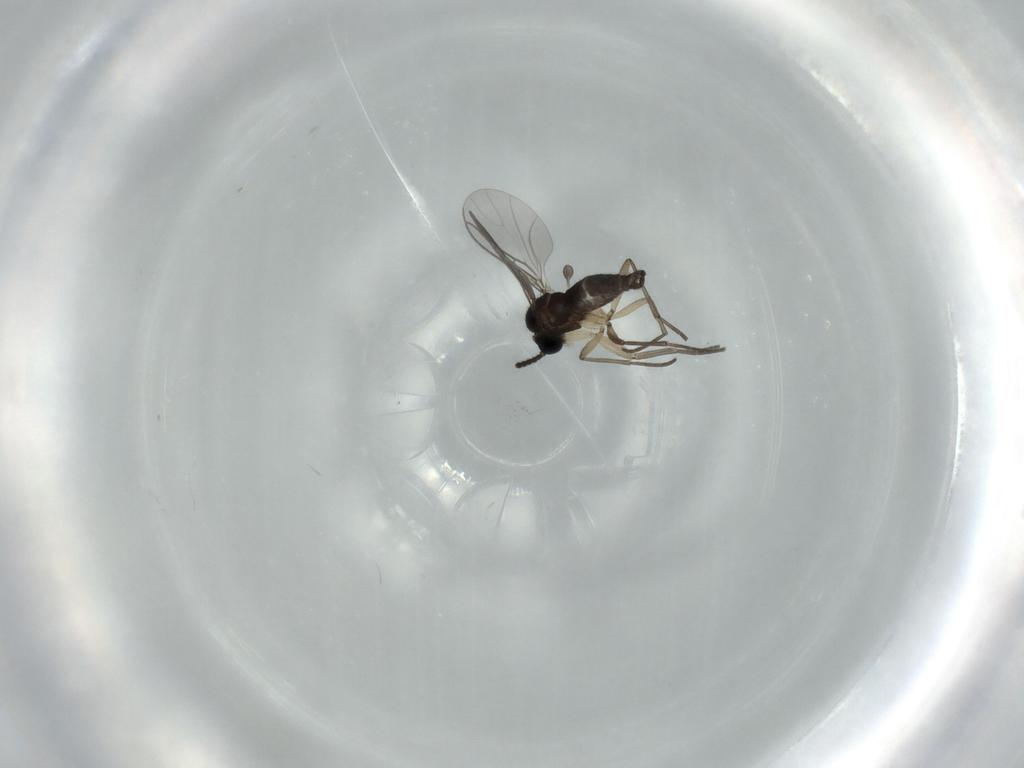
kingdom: Animalia
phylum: Arthropoda
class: Insecta
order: Diptera
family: Sciaridae
